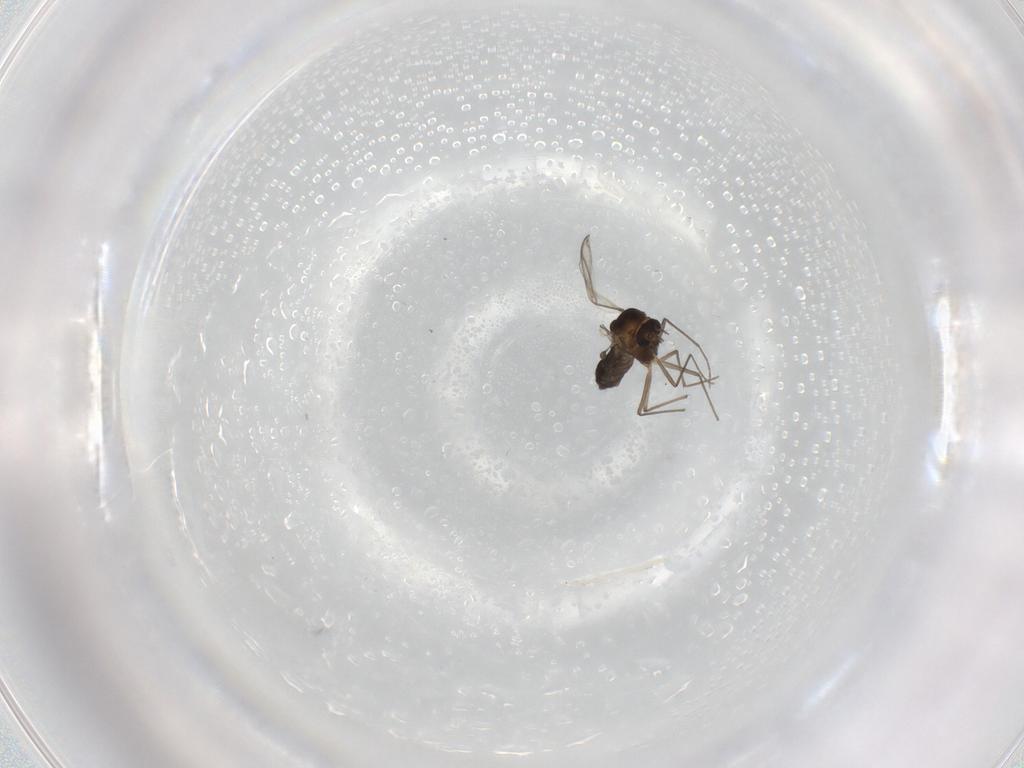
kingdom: Animalia
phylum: Arthropoda
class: Insecta
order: Diptera
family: Chironomidae
